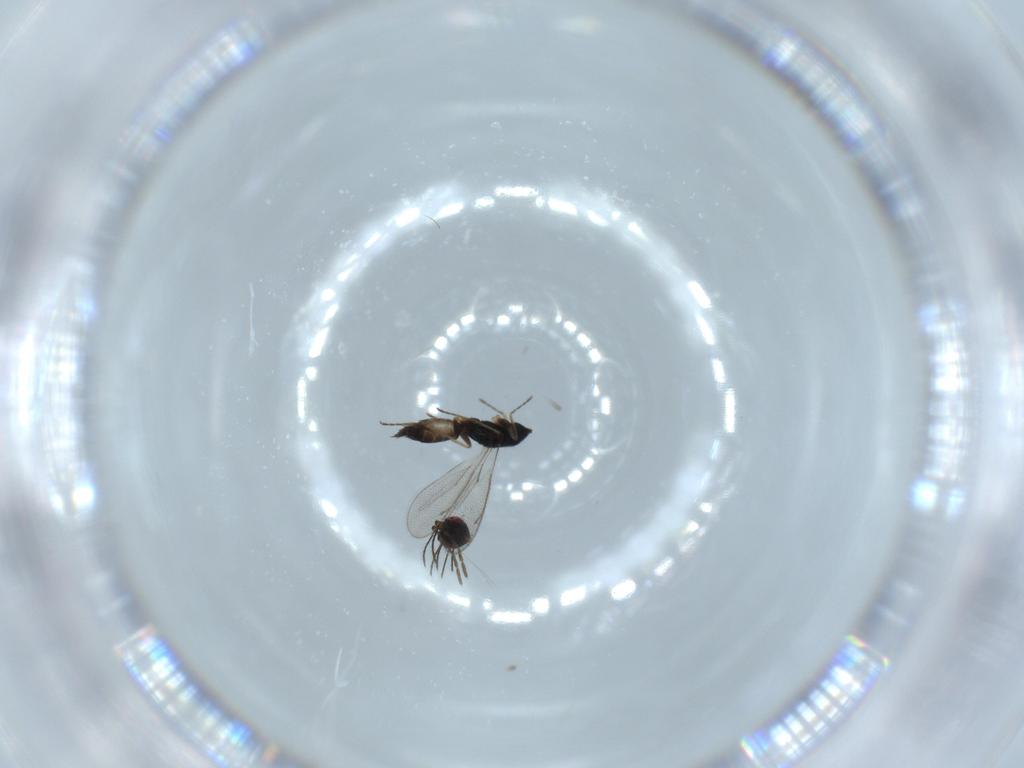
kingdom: Animalia
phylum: Arthropoda
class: Insecta
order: Hymenoptera
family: Eulophidae
